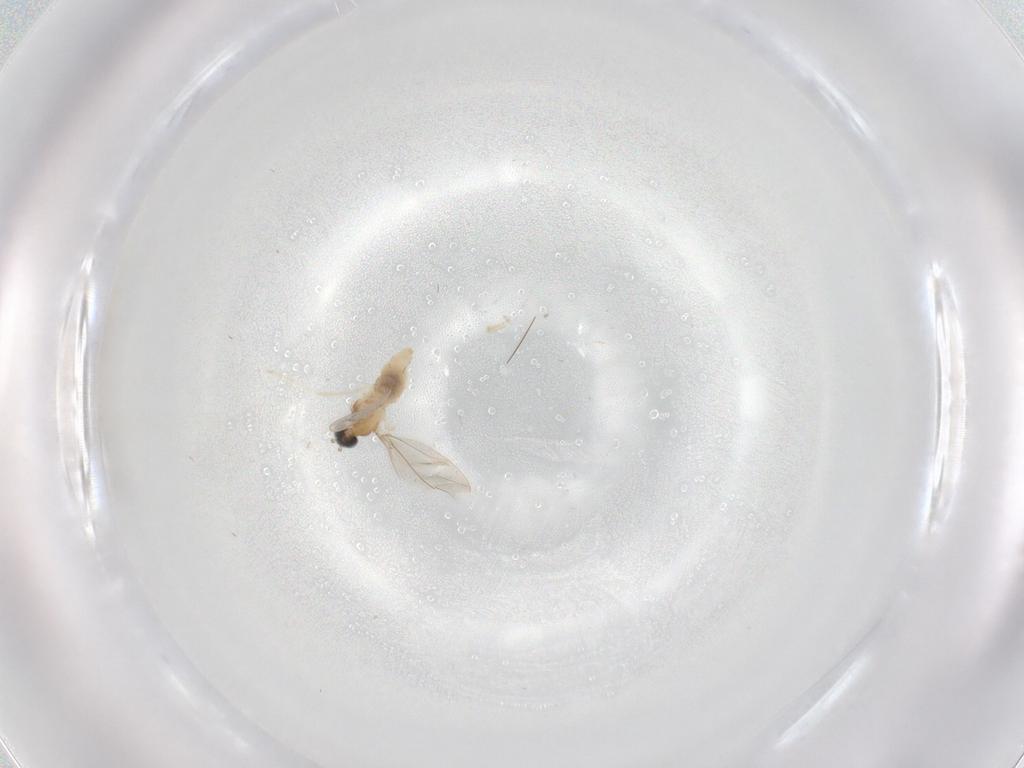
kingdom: Animalia
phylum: Arthropoda
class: Insecta
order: Diptera
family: Cecidomyiidae
